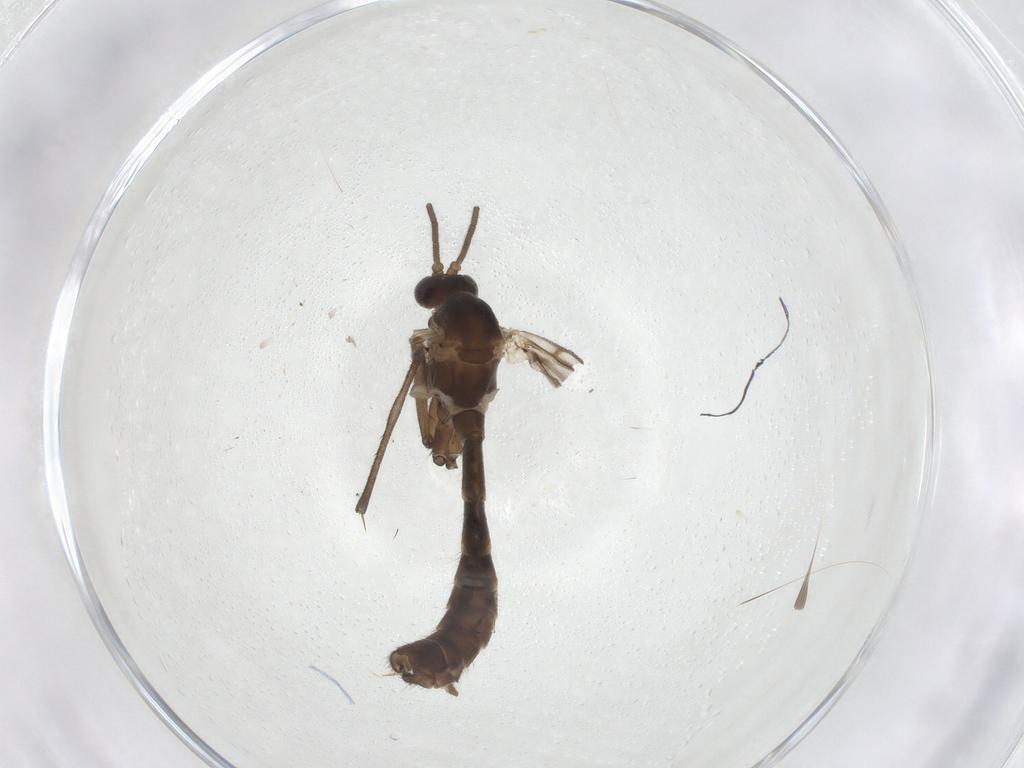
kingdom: Animalia
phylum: Arthropoda
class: Insecta
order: Diptera
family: Mycetophilidae
